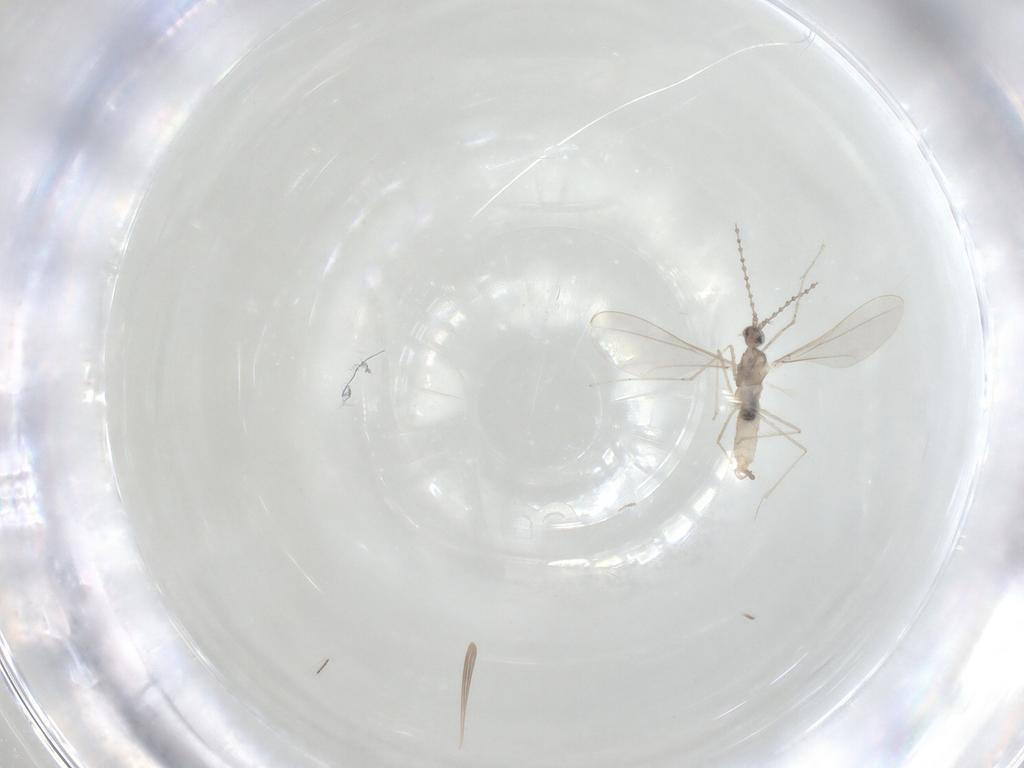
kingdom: Animalia
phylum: Arthropoda
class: Insecta
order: Diptera
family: Cecidomyiidae
